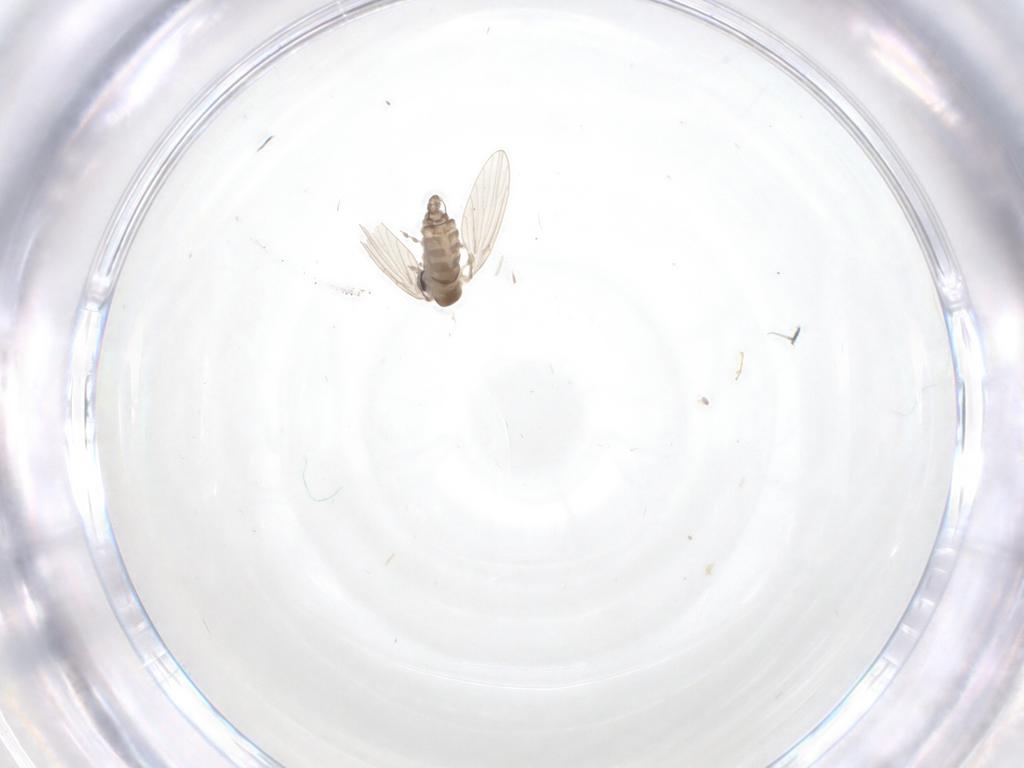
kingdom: Animalia
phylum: Arthropoda
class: Insecta
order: Diptera
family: Cecidomyiidae
